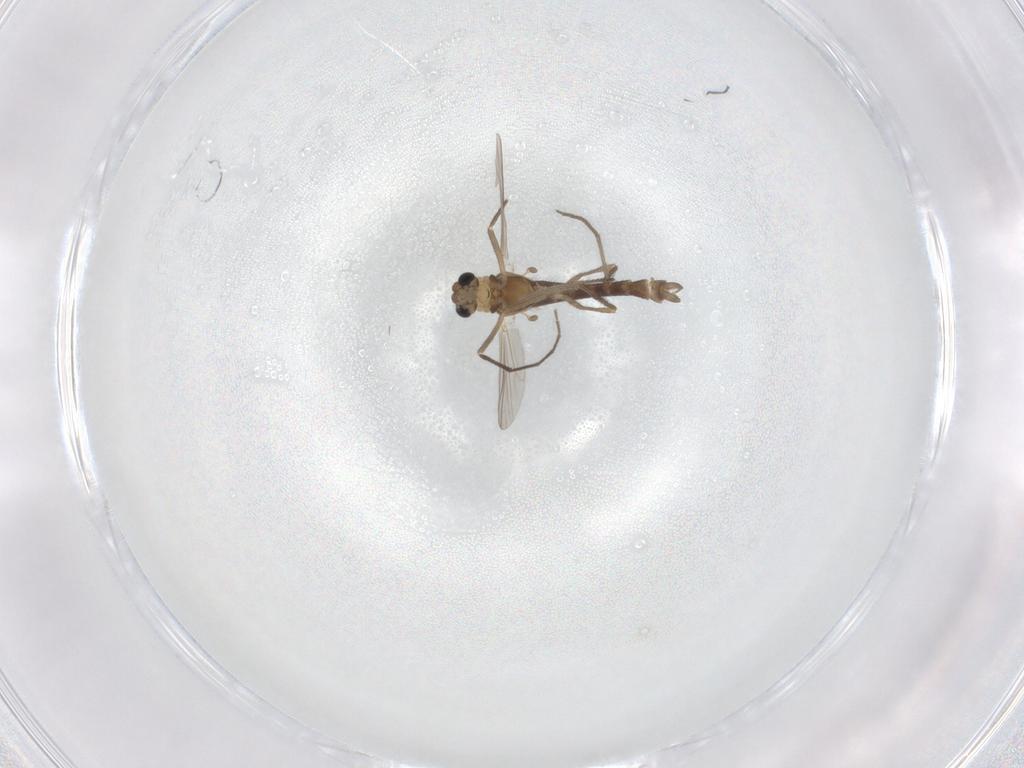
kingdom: Animalia
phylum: Arthropoda
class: Insecta
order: Diptera
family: Chironomidae
